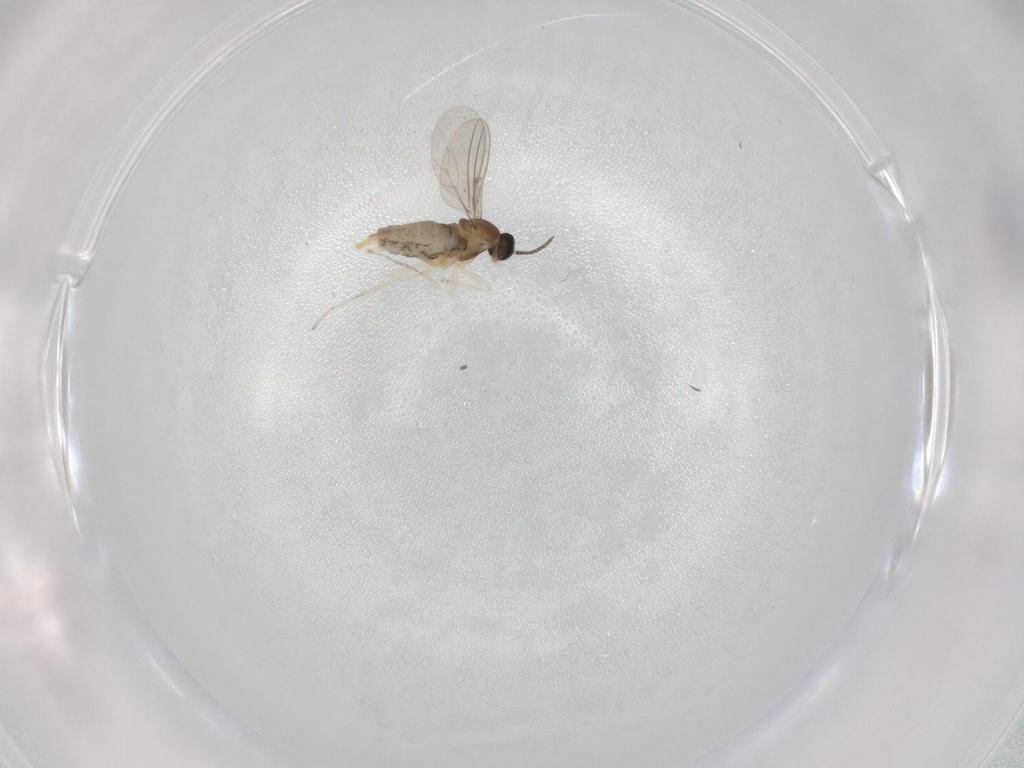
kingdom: Animalia
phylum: Arthropoda
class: Insecta
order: Diptera
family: Cecidomyiidae
